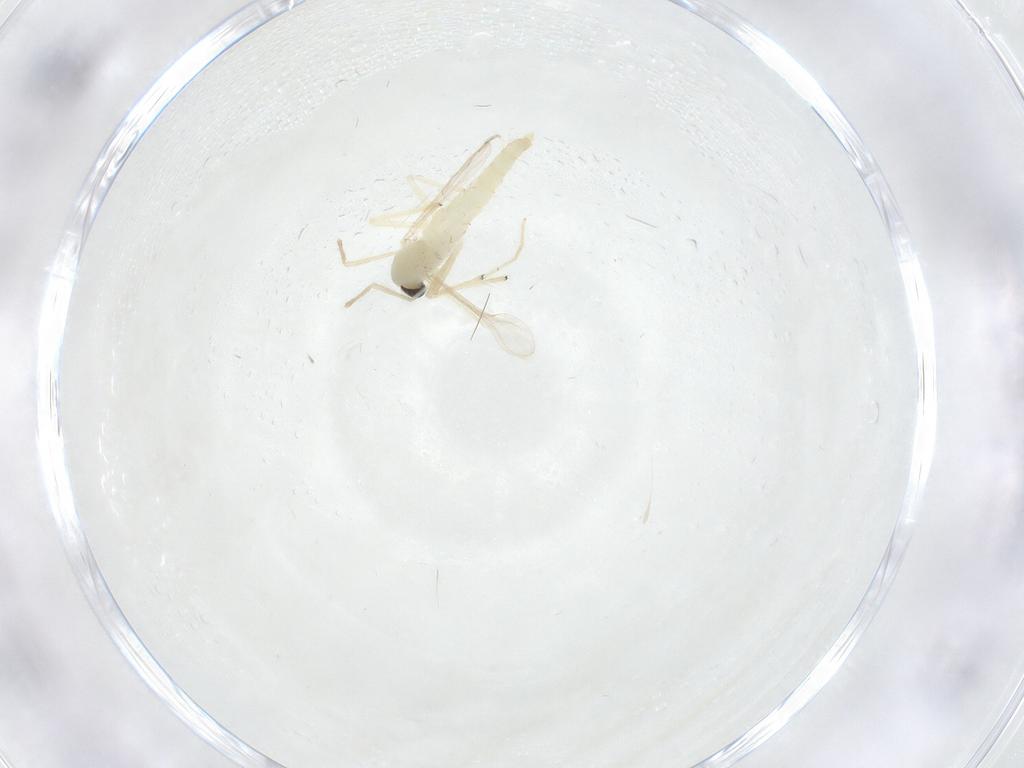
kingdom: Animalia
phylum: Arthropoda
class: Insecta
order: Diptera
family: Chironomidae
